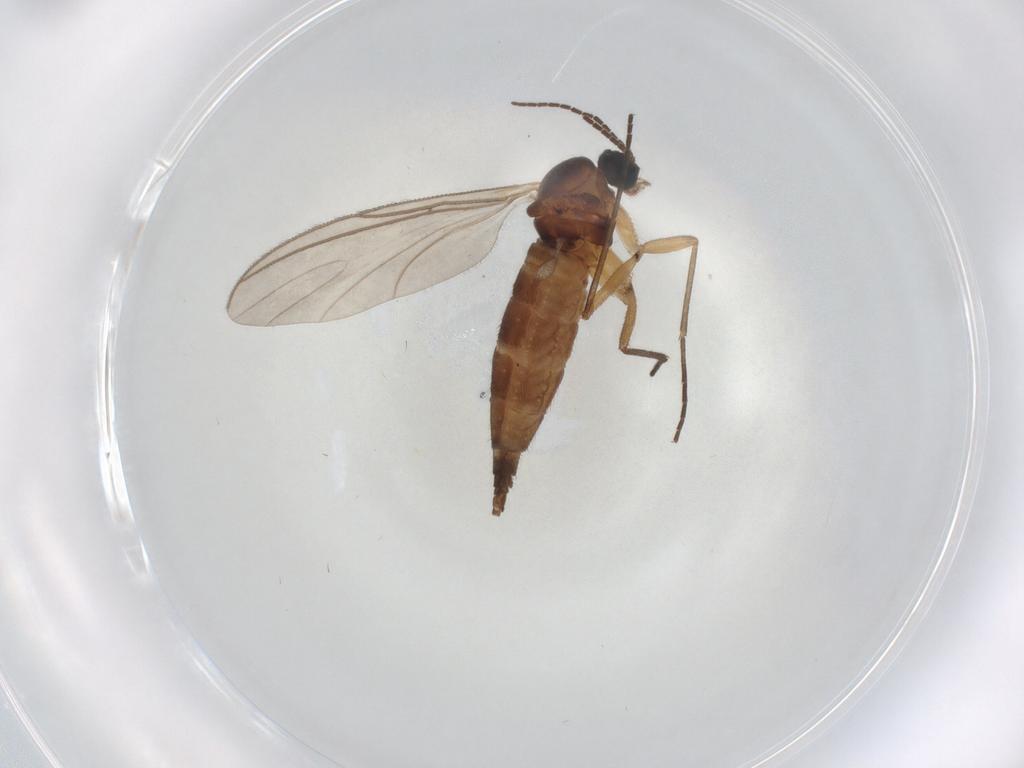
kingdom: Animalia
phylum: Arthropoda
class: Insecta
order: Diptera
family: Sciaridae
